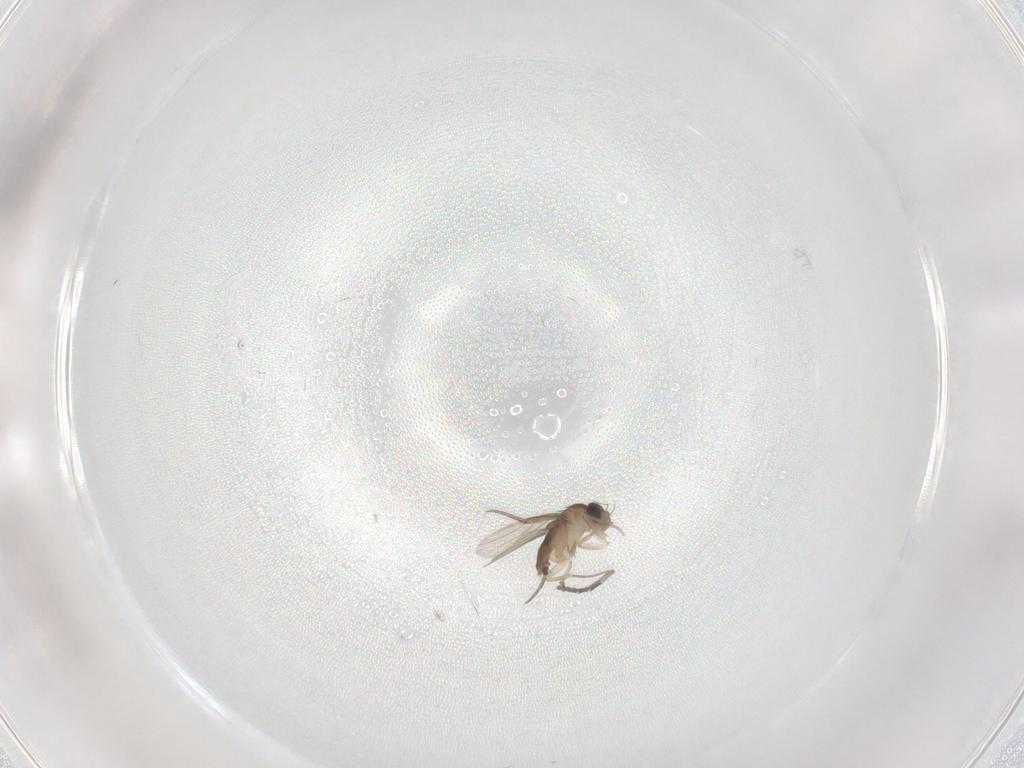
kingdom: Animalia
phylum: Arthropoda
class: Insecta
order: Diptera
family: Phoridae
